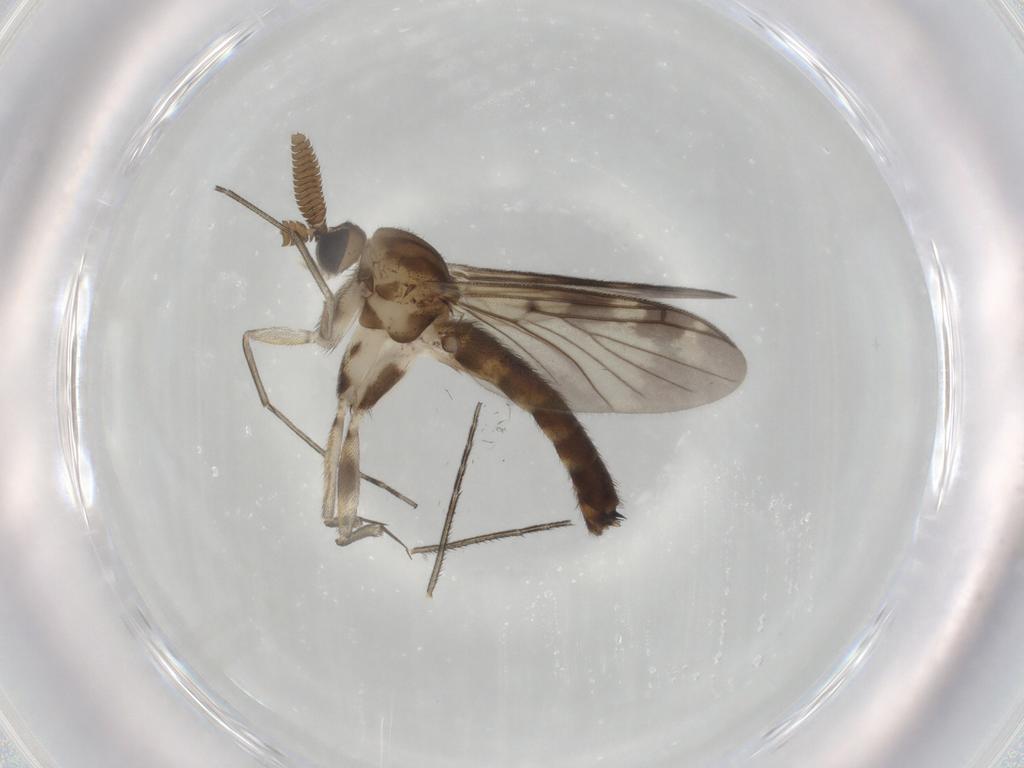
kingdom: Animalia
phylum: Arthropoda
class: Insecta
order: Diptera
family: Keroplatidae
